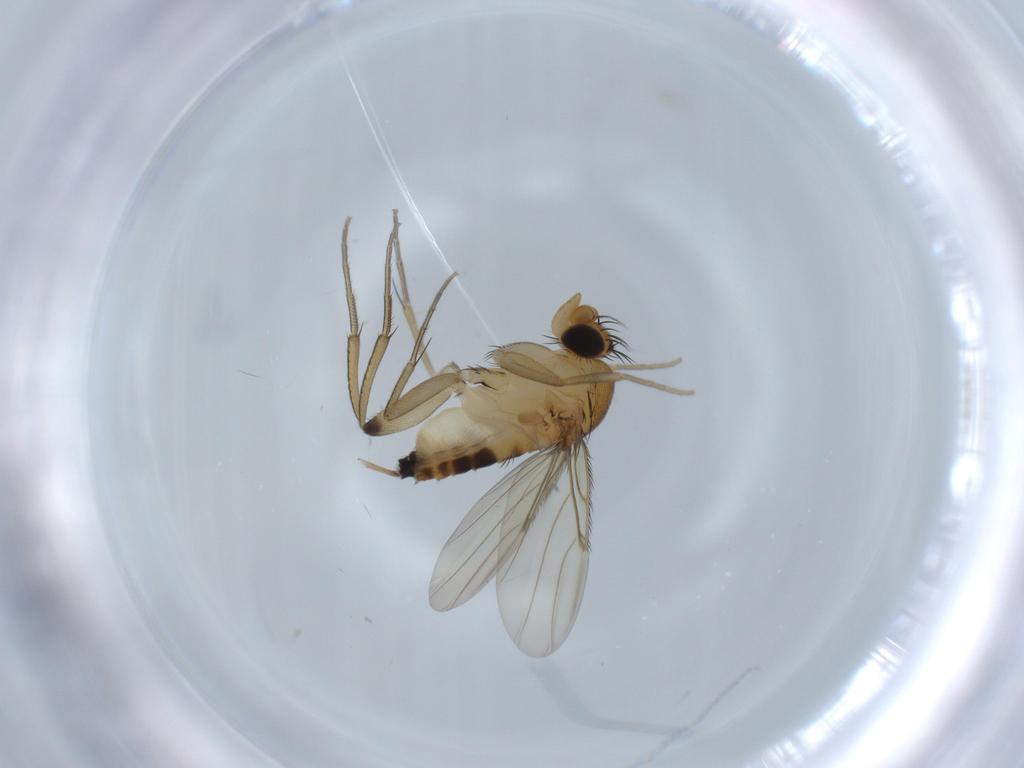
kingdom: Animalia
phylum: Arthropoda
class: Insecta
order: Diptera
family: Phoridae
